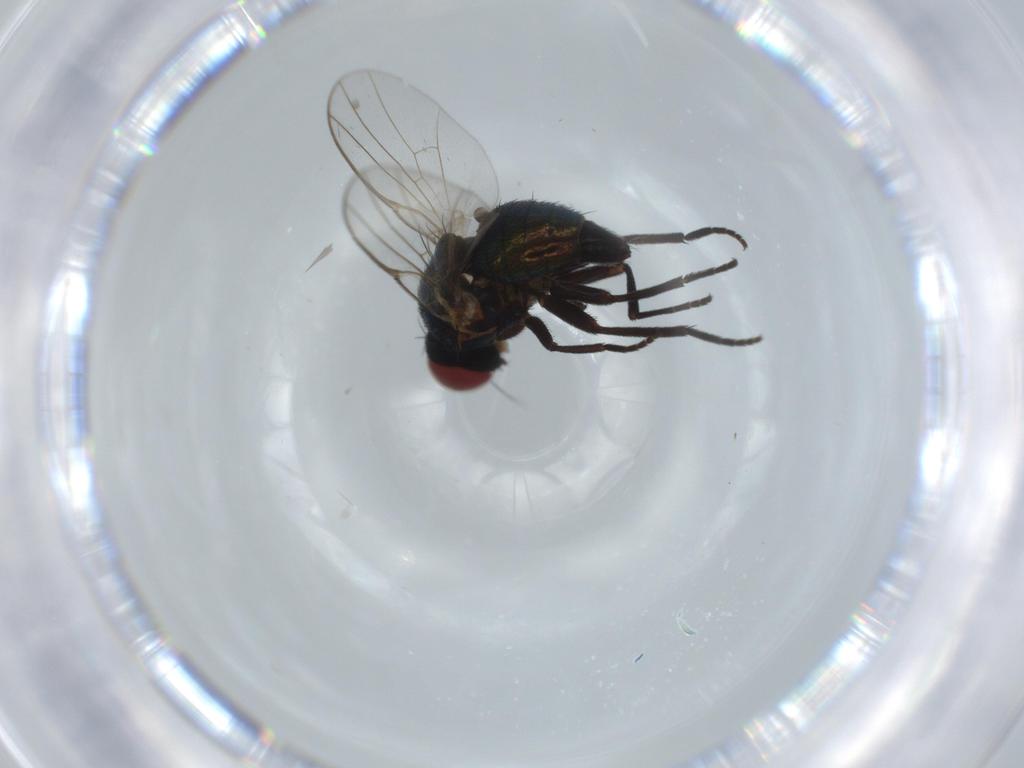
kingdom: Animalia
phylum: Arthropoda
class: Insecta
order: Diptera
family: Agromyzidae
